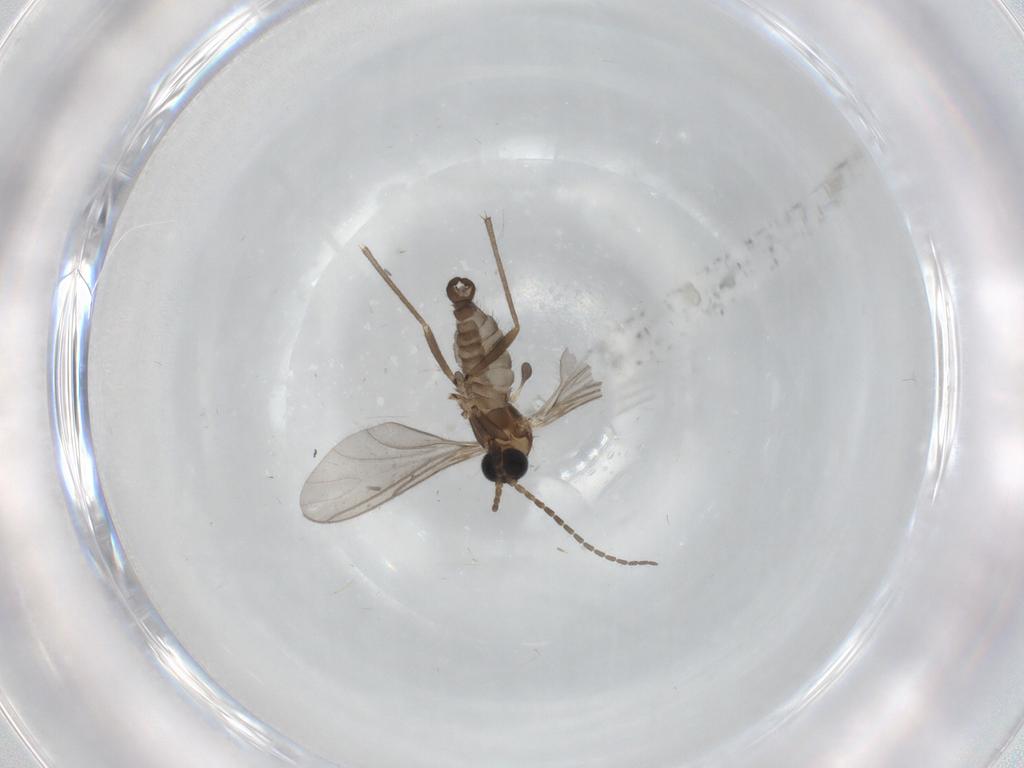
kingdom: Animalia
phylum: Arthropoda
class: Insecta
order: Diptera
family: Sciaridae
